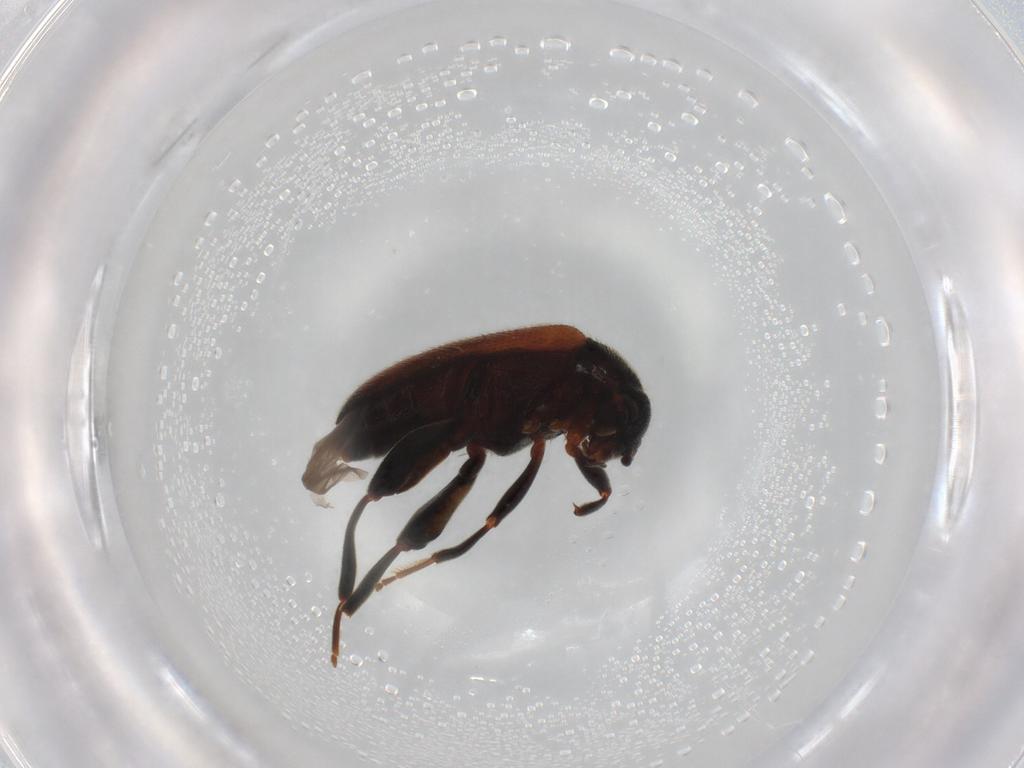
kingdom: Animalia
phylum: Arthropoda
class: Insecta
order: Coleoptera
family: Aderidae
